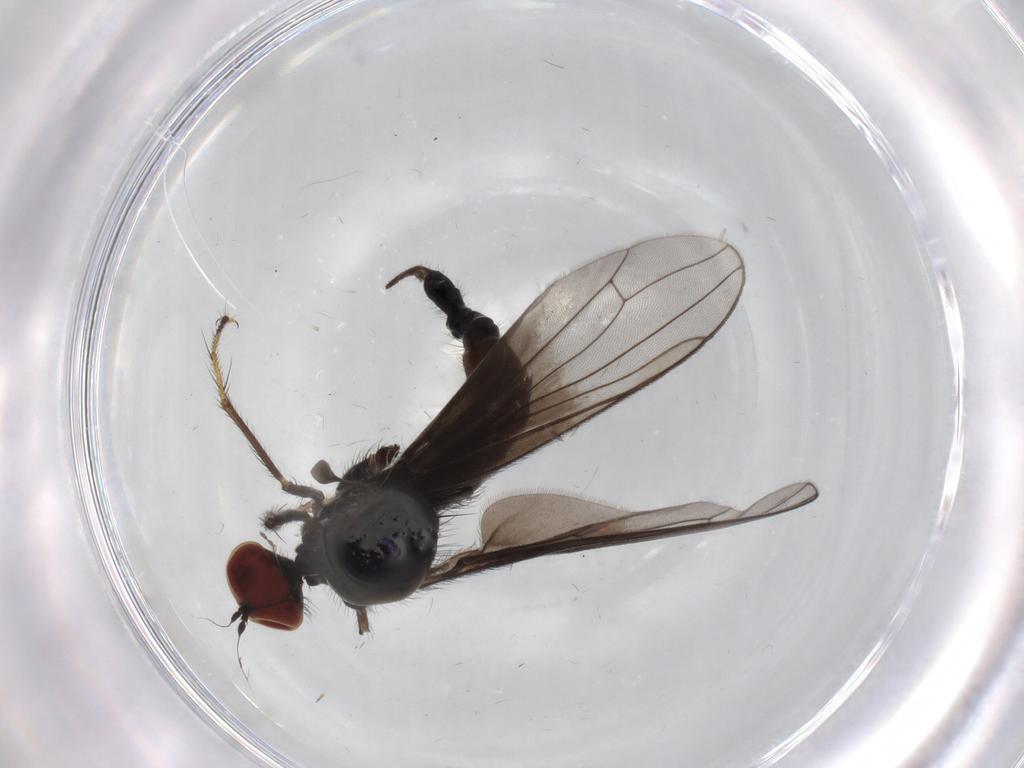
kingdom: Animalia
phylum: Arthropoda
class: Insecta
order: Diptera
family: Hybotidae
